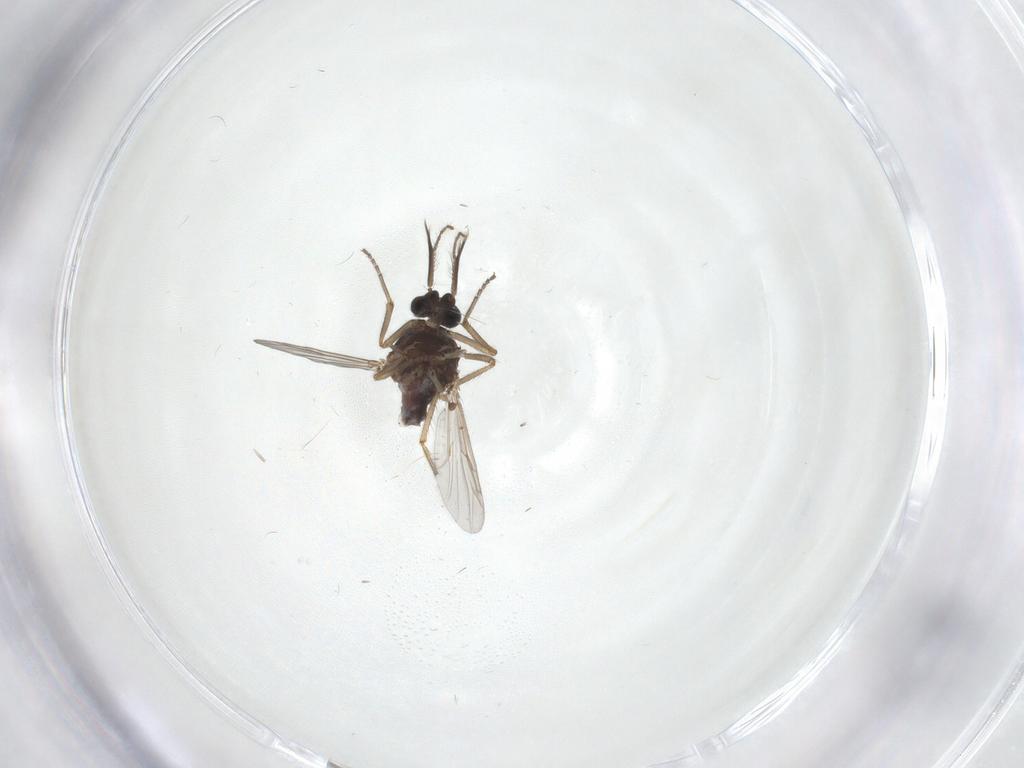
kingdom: Animalia
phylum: Arthropoda
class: Insecta
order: Diptera
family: Ceratopogonidae
